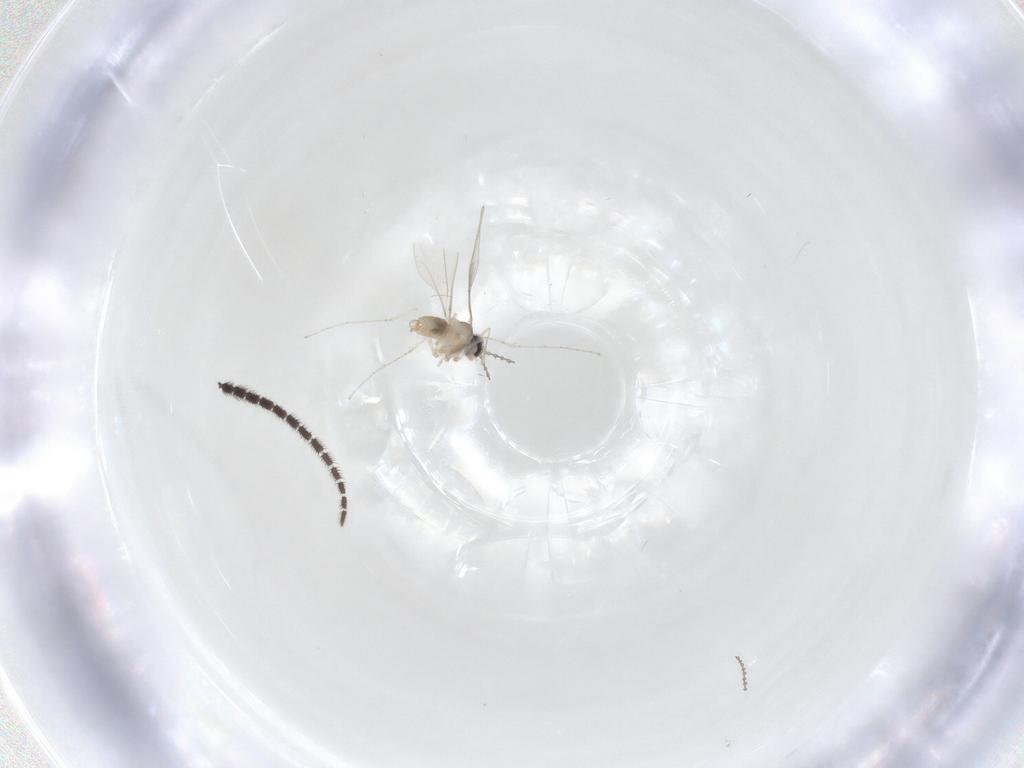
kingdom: Animalia
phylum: Arthropoda
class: Insecta
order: Diptera
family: Cecidomyiidae
